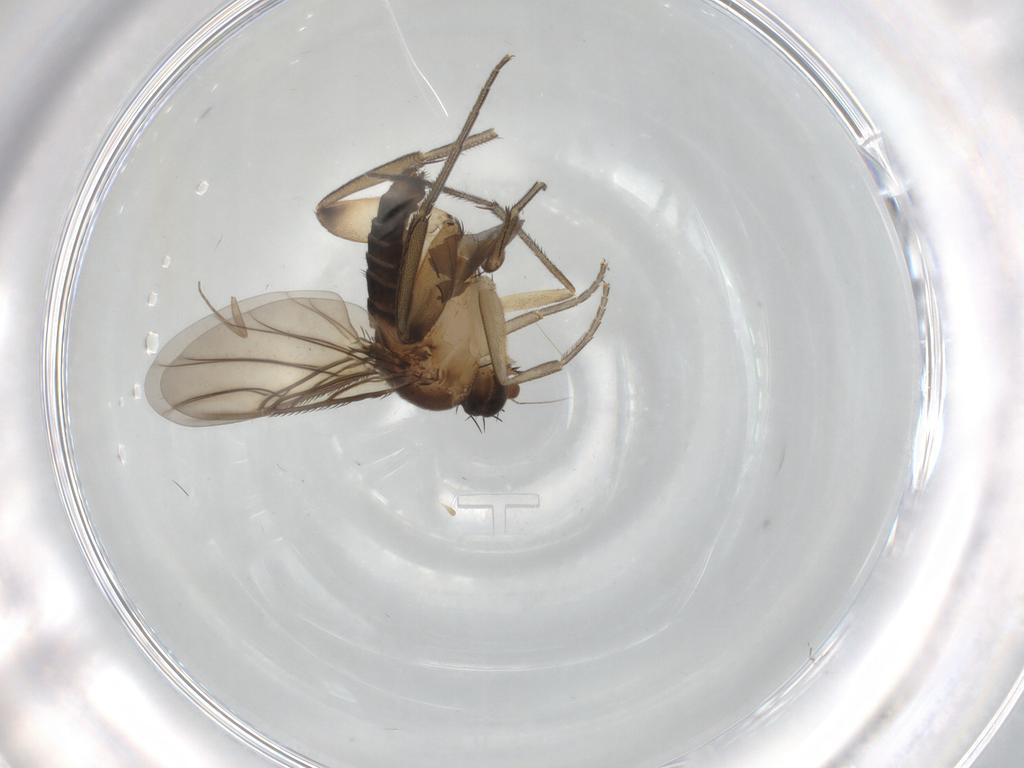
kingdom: Animalia
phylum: Arthropoda
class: Insecta
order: Diptera
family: Phoridae
